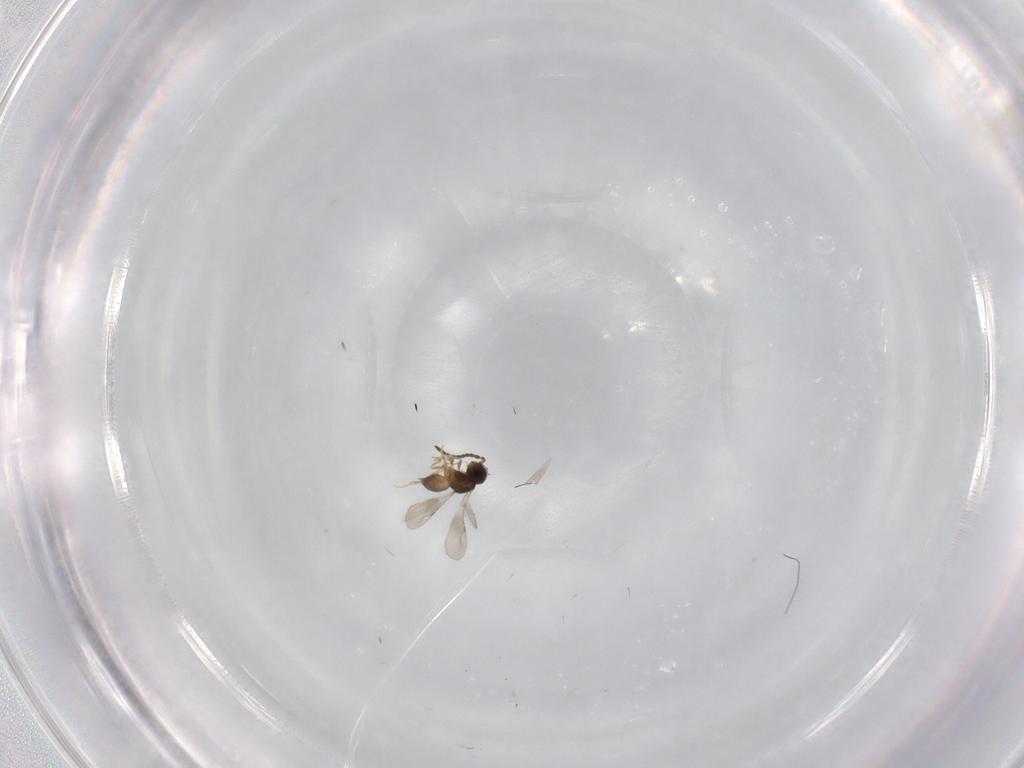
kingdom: Animalia
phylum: Arthropoda
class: Insecta
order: Hymenoptera
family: Ceraphronidae
